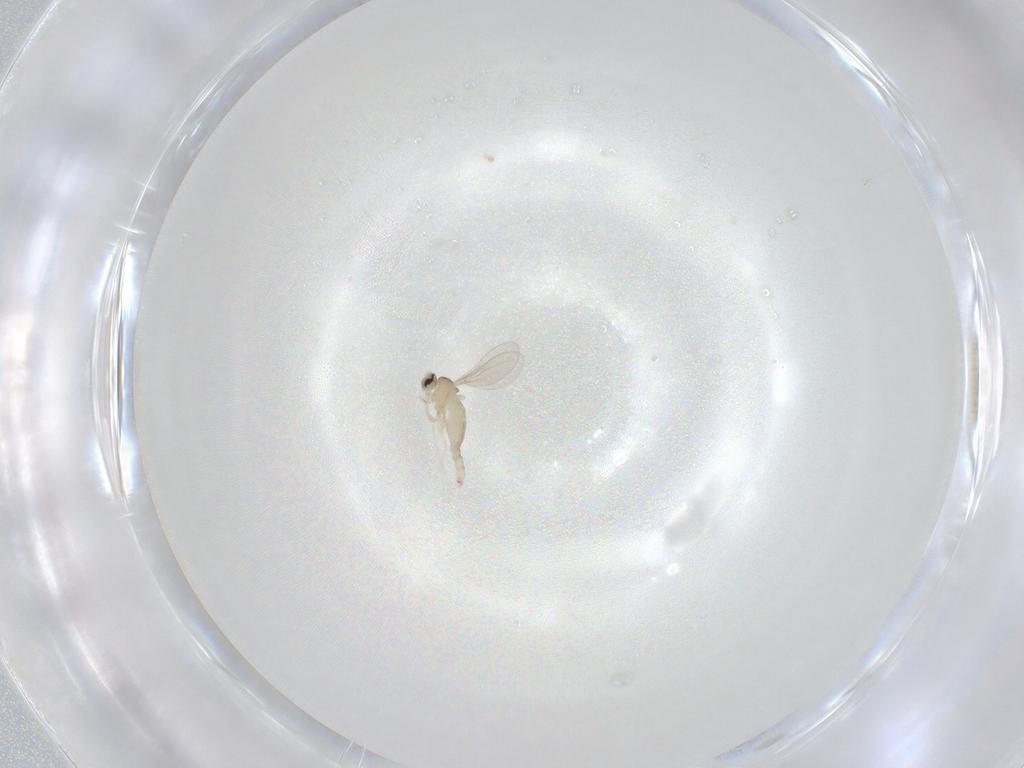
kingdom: Animalia
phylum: Arthropoda
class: Insecta
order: Diptera
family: Cecidomyiidae
